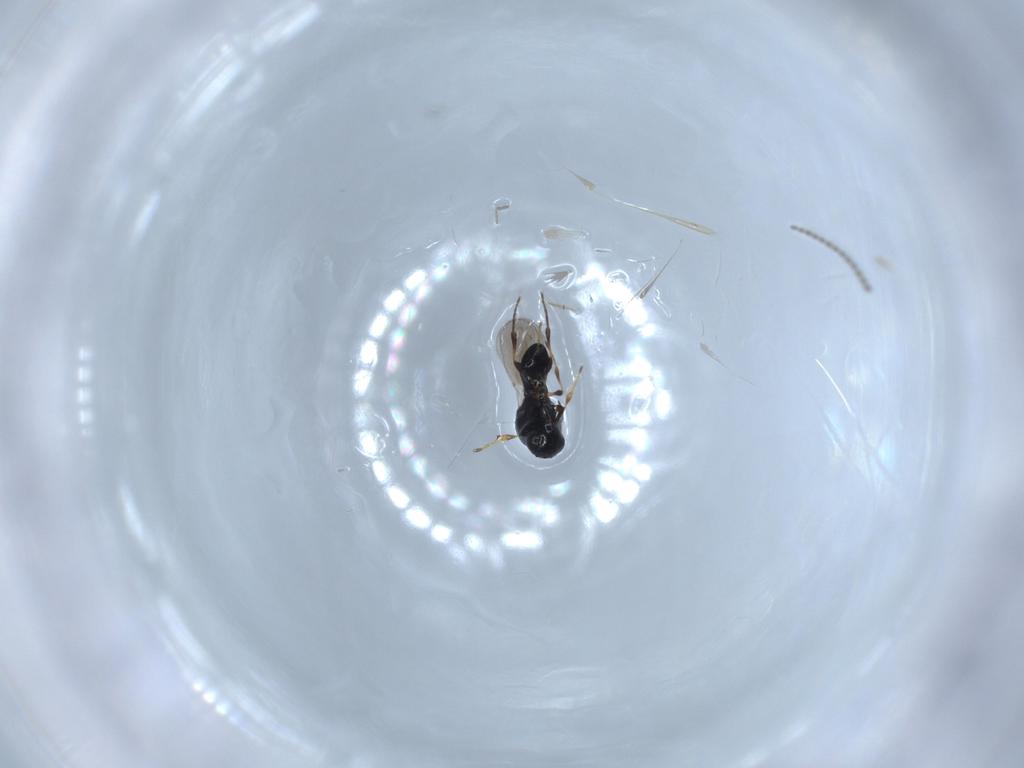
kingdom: Animalia
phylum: Arthropoda
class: Insecta
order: Hymenoptera
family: Platygastridae
